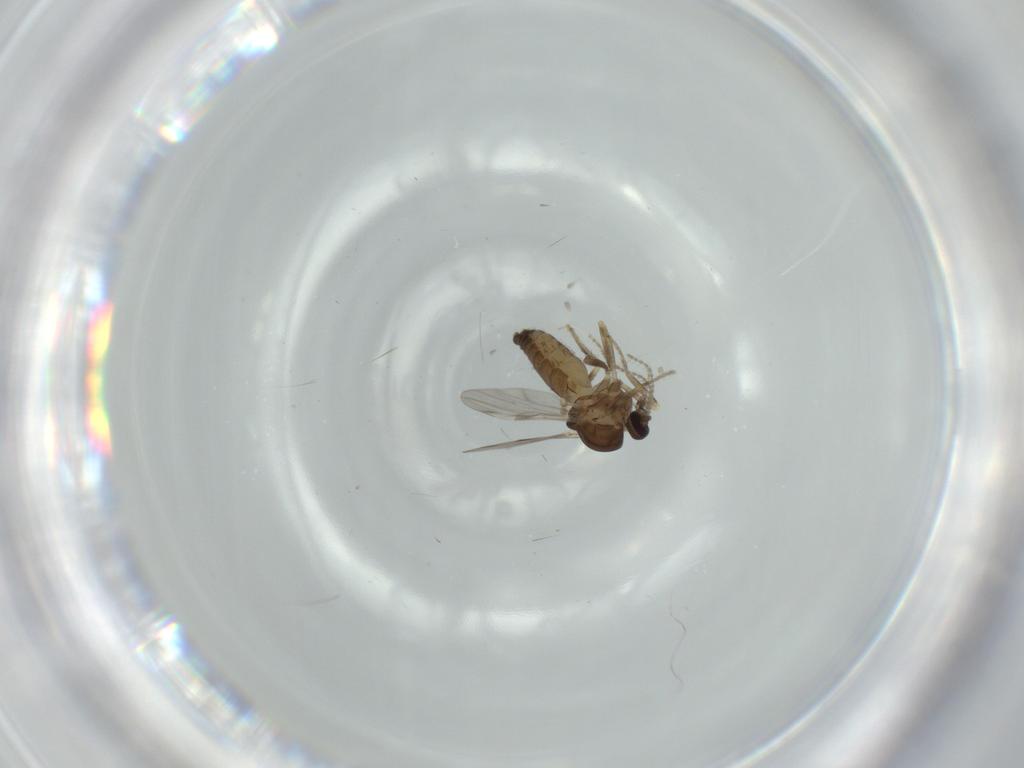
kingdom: Animalia
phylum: Arthropoda
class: Insecta
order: Diptera
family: Ceratopogonidae
